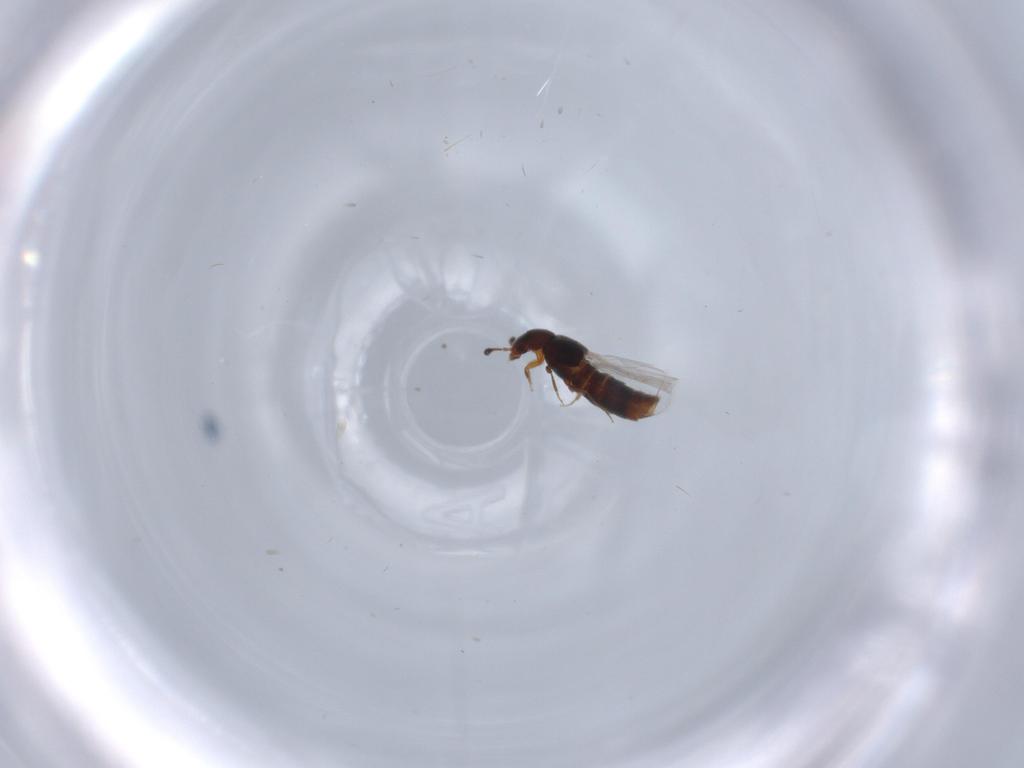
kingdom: Animalia
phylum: Arthropoda
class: Insecta
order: Coleoptera
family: Staphylinidae
